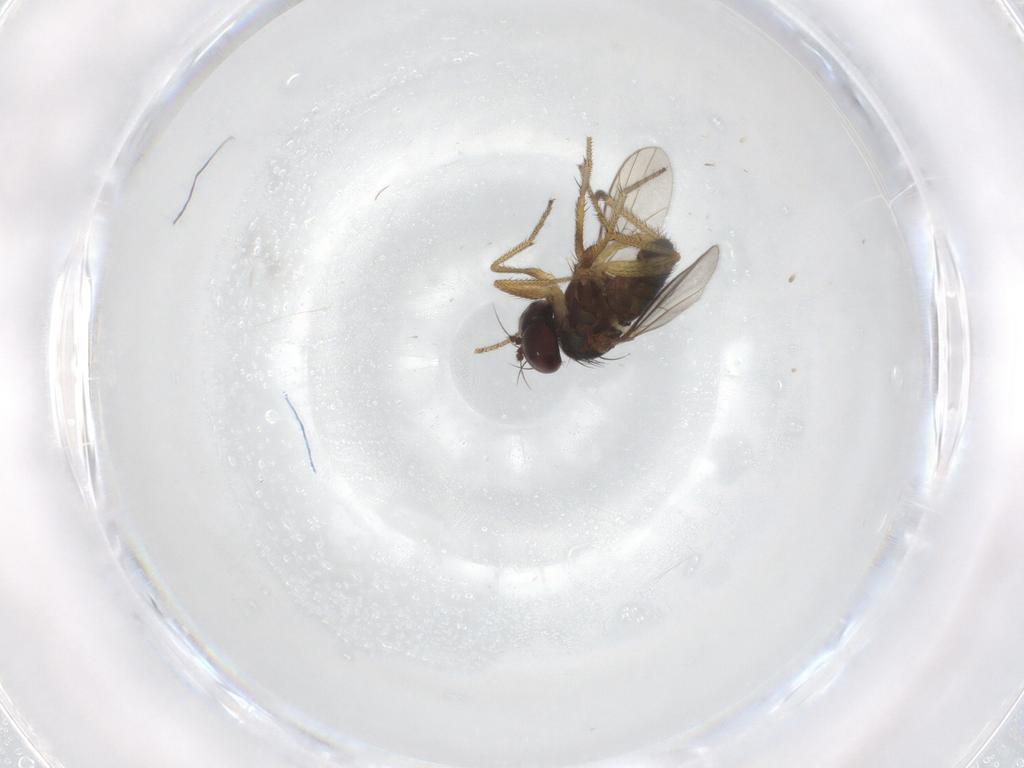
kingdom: Animalia
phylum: Arthropoda
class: Insecta
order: Diptera
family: Dolichopodidae
